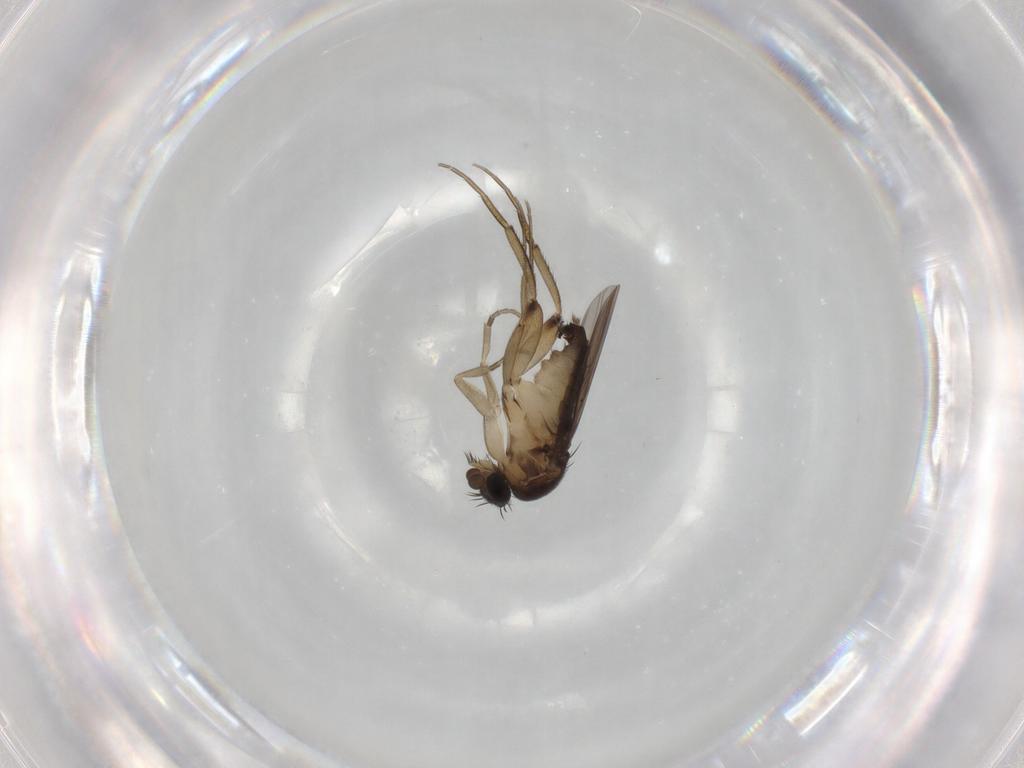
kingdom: Animalia
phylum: Arthropoda
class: Insecta
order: Diptera
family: Phoridae
